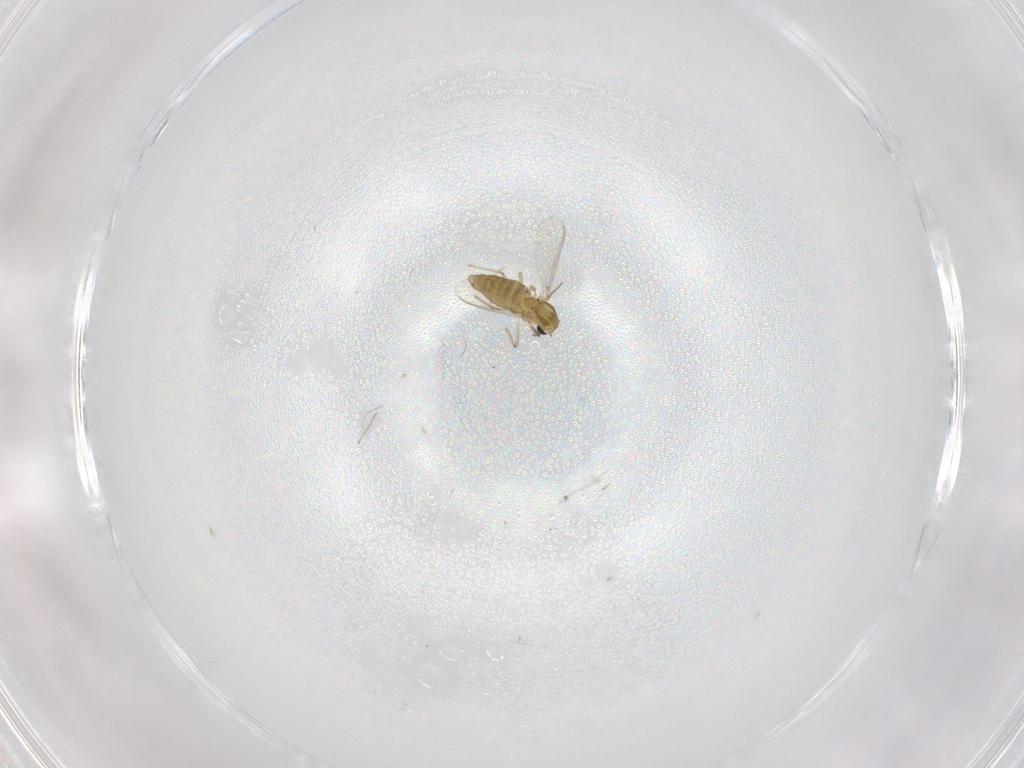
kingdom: Animalia
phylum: Arthropoda
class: Insecta
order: Diptera
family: Chironomidae
